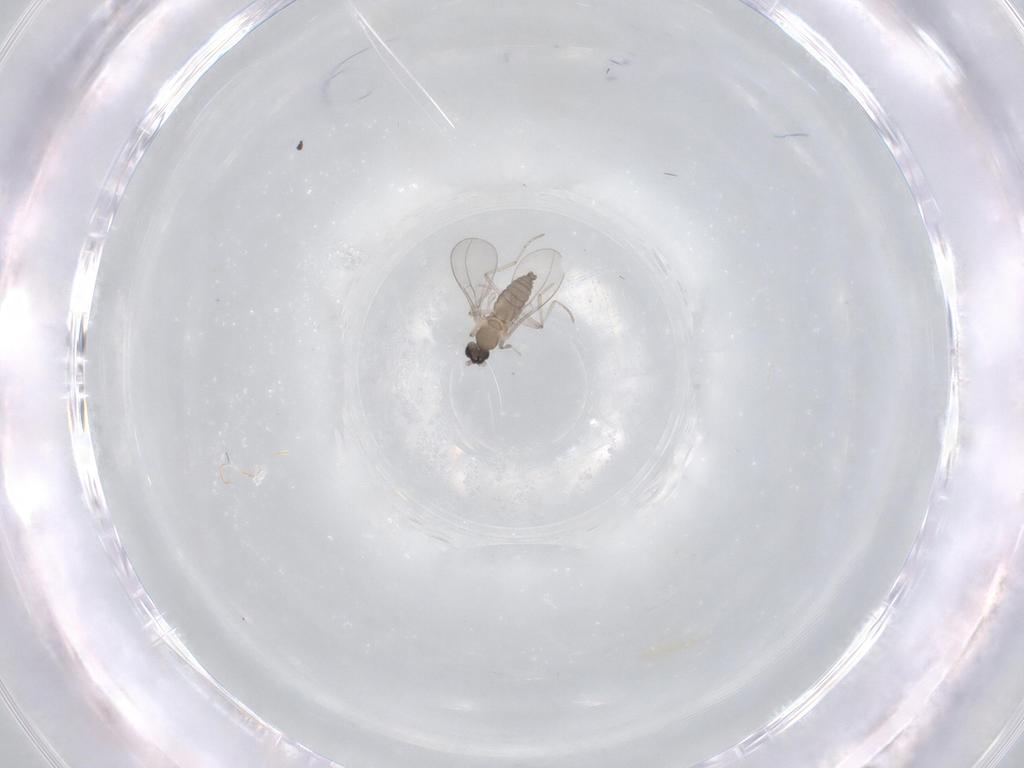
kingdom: Animalia
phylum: Arthropoda
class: Insecta
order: Diptera
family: Cecidomyiidae
